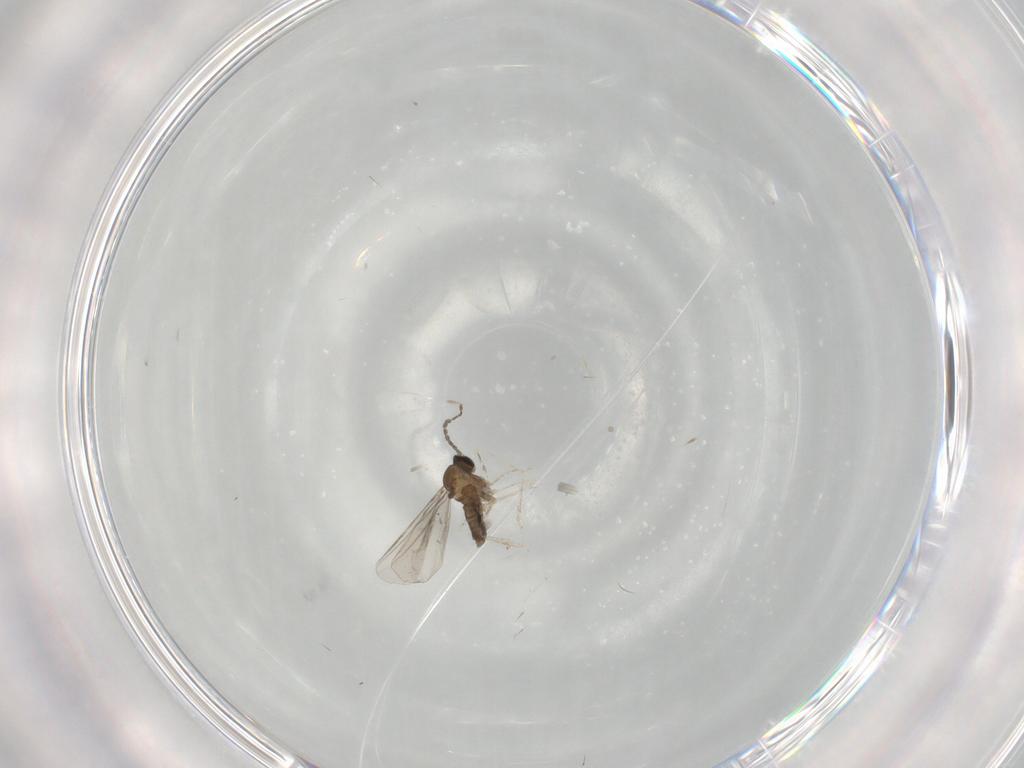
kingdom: Animalia
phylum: Arthropoda
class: Insecta
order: Diptera
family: Cecidomyiidae
